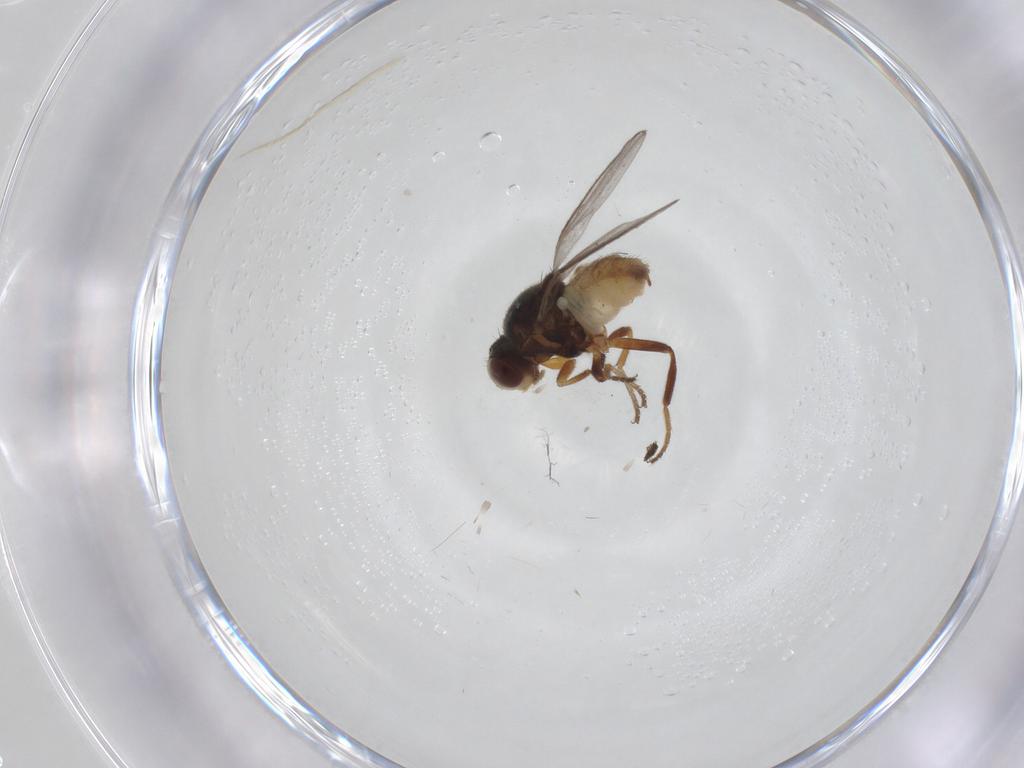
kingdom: Animalia
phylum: Arthropoda
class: Insecta
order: Diptera
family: Chloropidae
